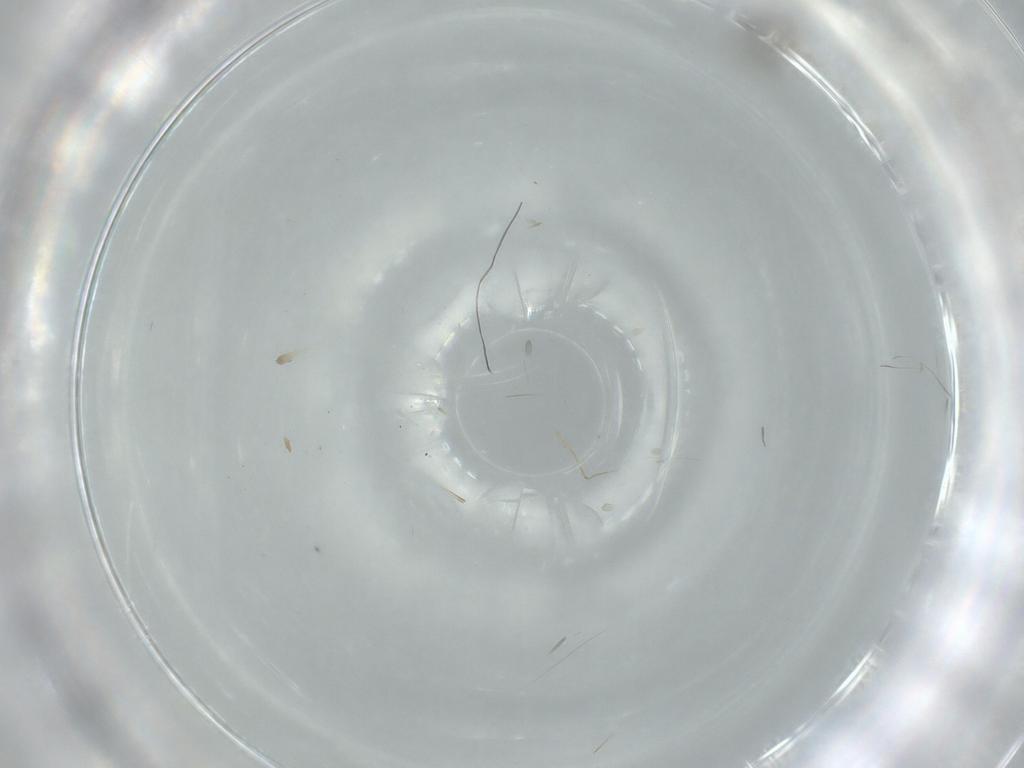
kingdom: Animalia
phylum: Arthropoda
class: Insecta
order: Diptera
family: Cecidomyiidae
